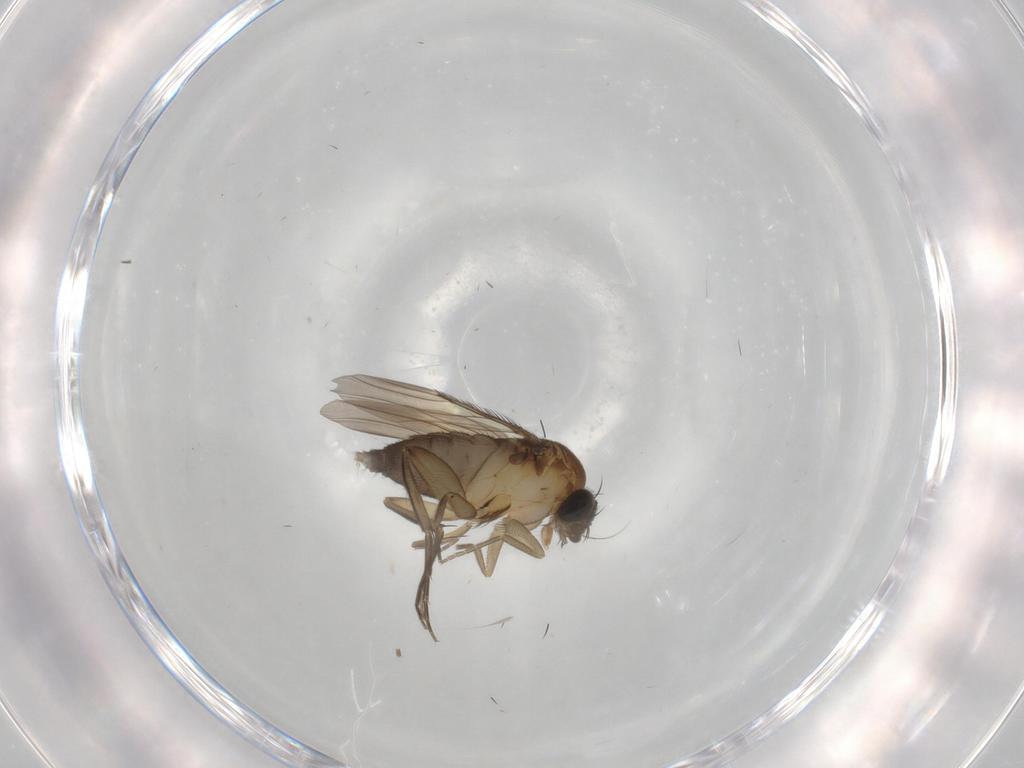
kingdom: Animalia
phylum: Arthropoda
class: Insecta
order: Diptera
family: Phoridae
